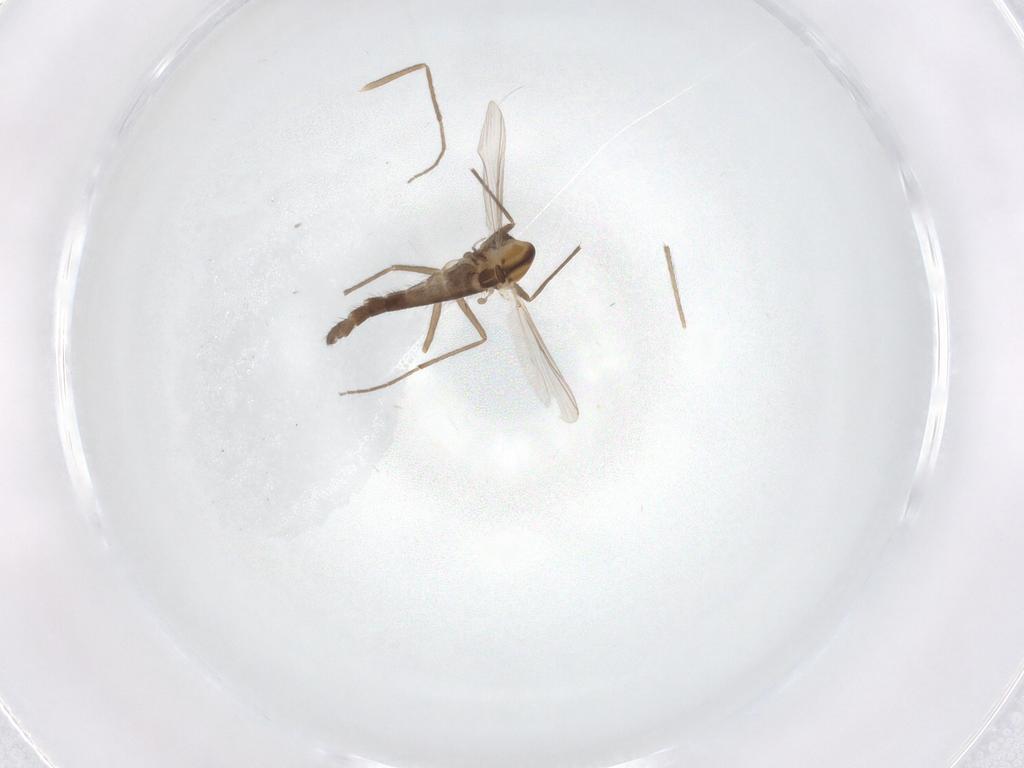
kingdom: Animalia
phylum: Arthropoda
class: Insecta
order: Diptera
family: Chironomidae
